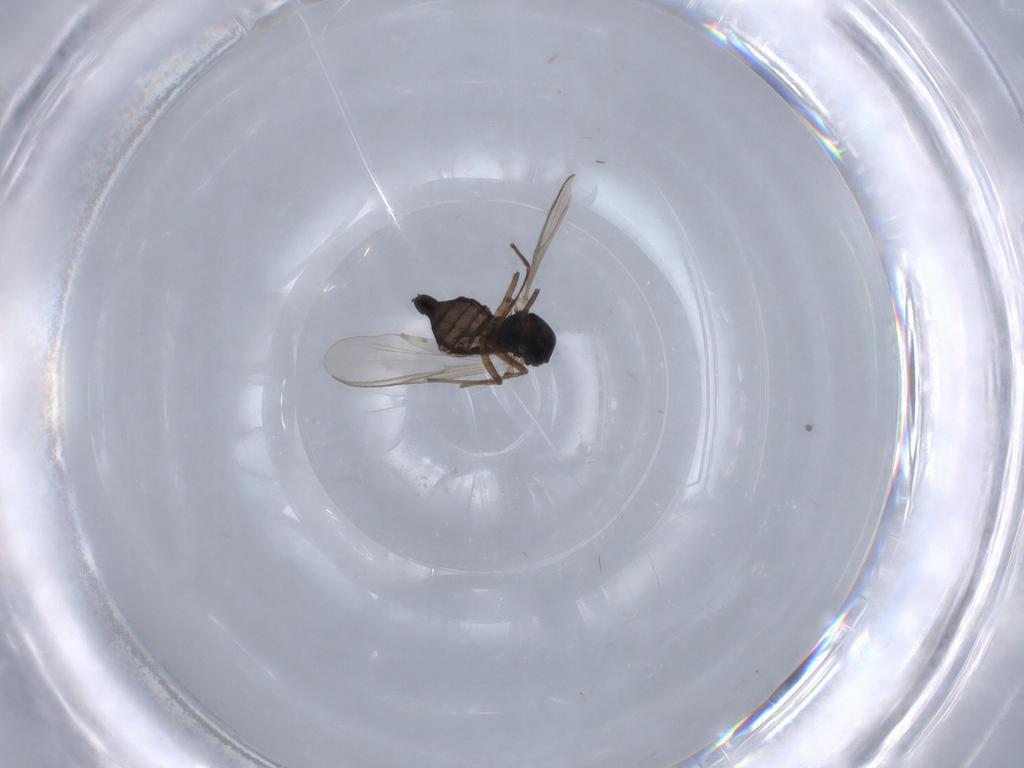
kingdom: Animalia
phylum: Arthropoda
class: Insecta
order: Diptera
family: Chironomidae
